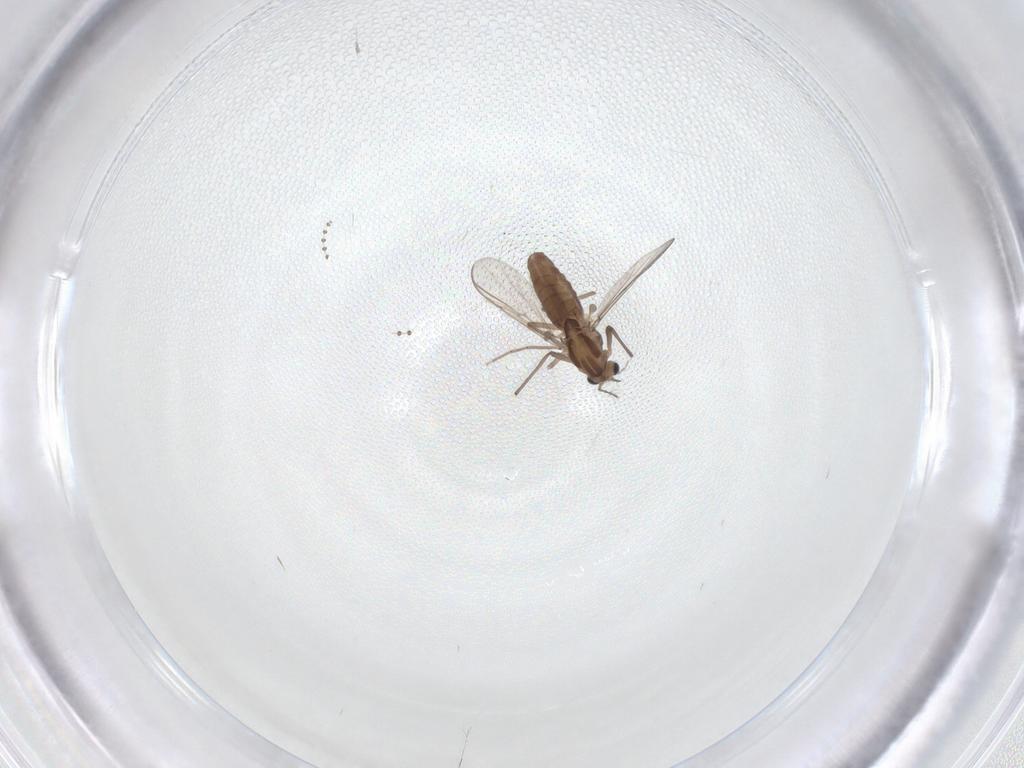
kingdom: Animalia
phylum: Arthropoda
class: Insecta
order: Diptera
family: Chironomidae
